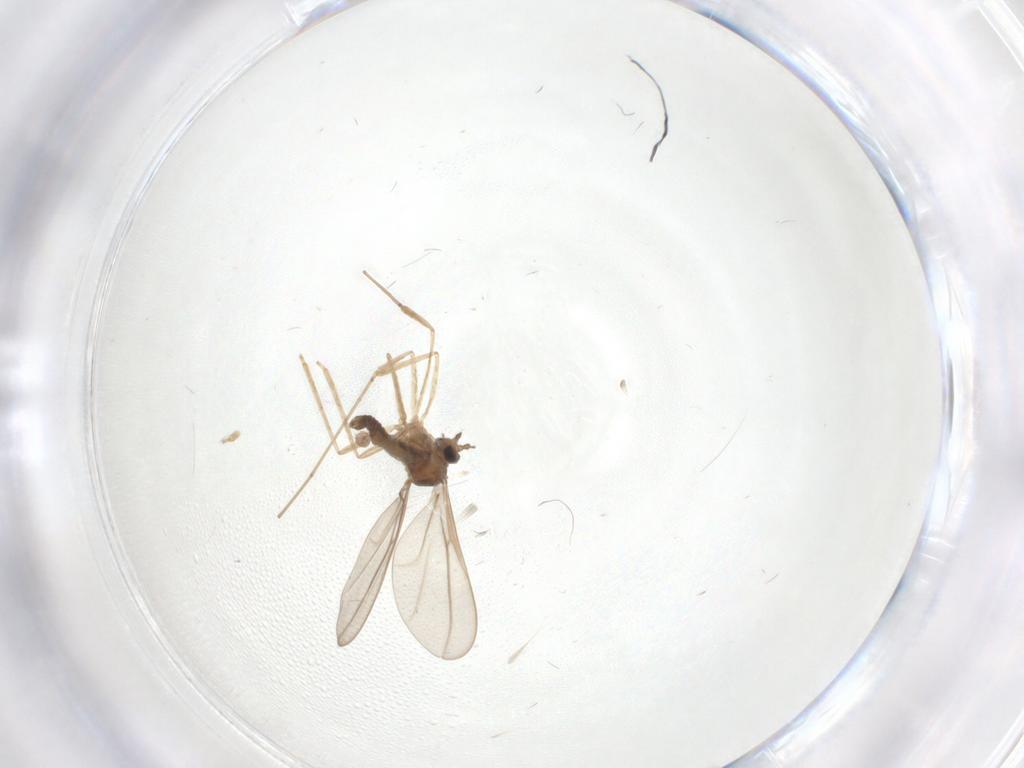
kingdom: Animalia
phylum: Arthropoda
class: Insecta
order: Diptera
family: Cecidomyiidae
